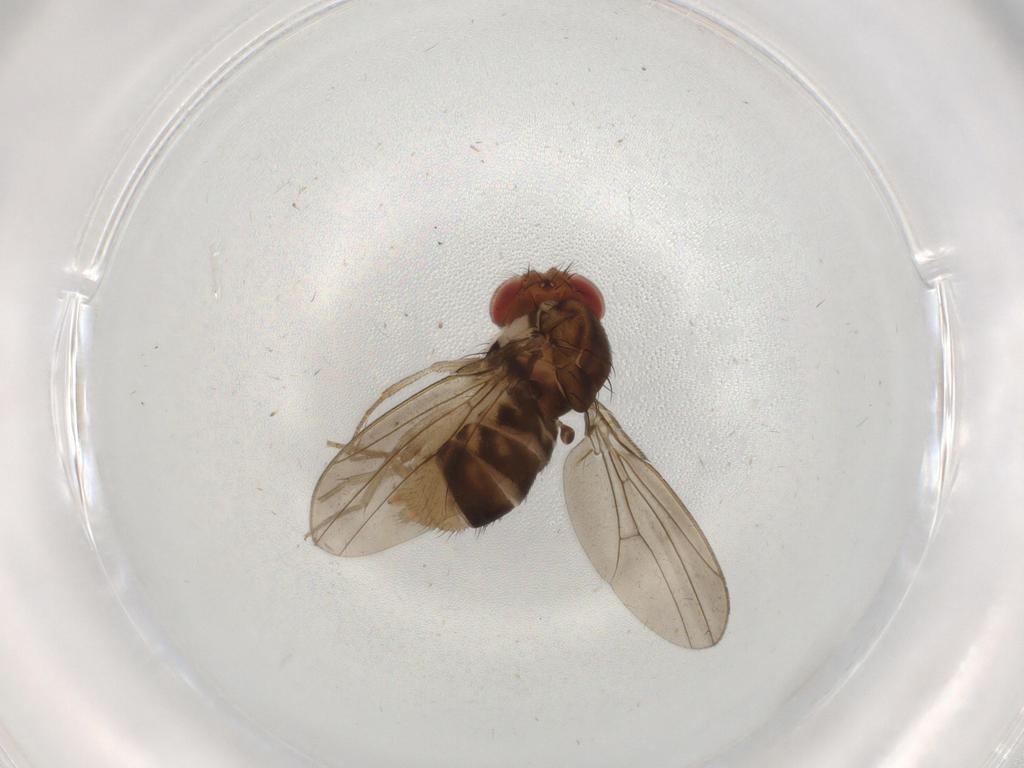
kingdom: Animalia
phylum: Arthropoda
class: Insecta
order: Diptera
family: Drosophilidae
